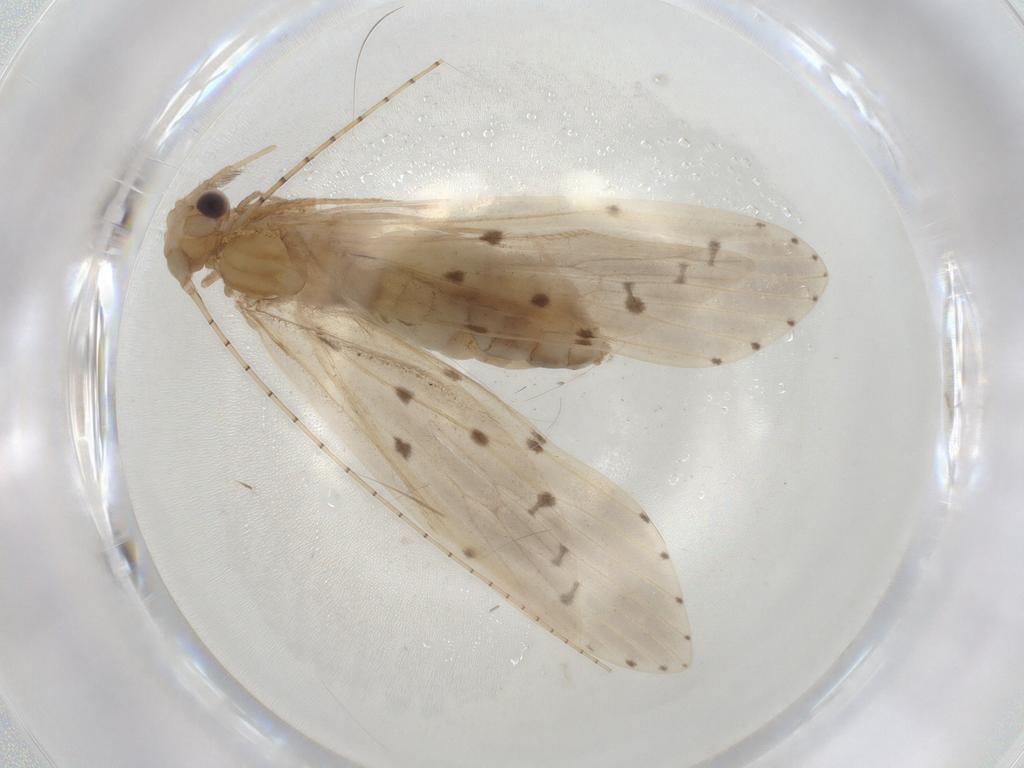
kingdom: Animalia
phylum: Arthropoda
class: Insecta
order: Trichoptera
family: Leptoceridae
